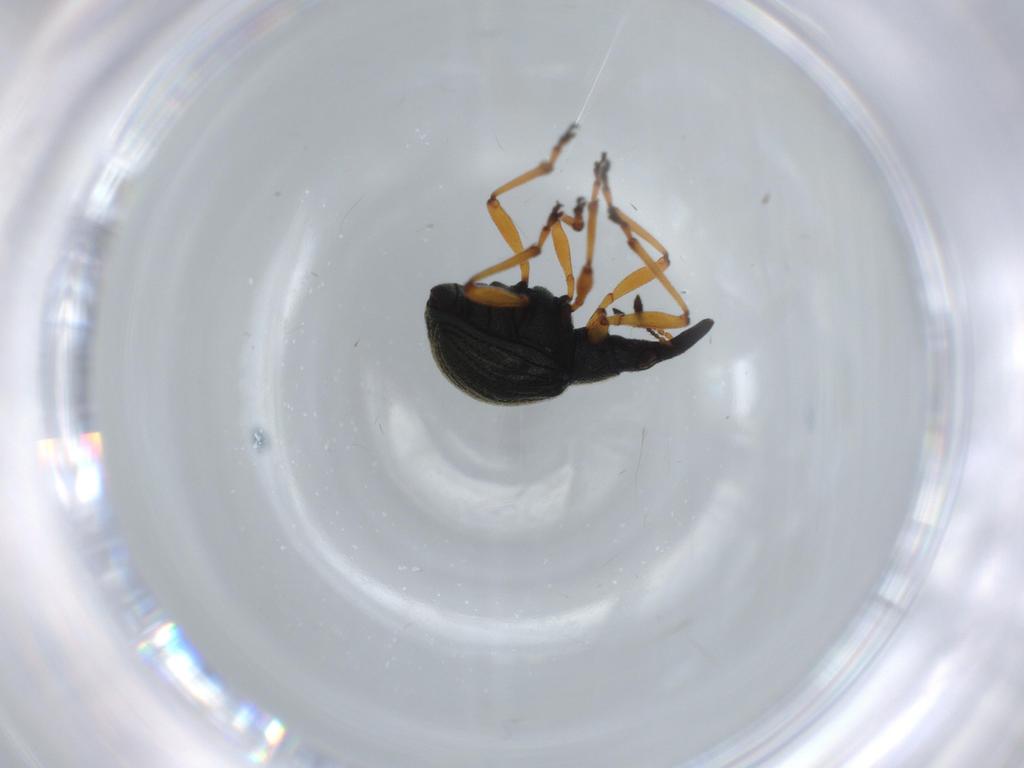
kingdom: Animalia
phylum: Arthropoda
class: Insecta
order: Coleoptera
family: Brentidae
